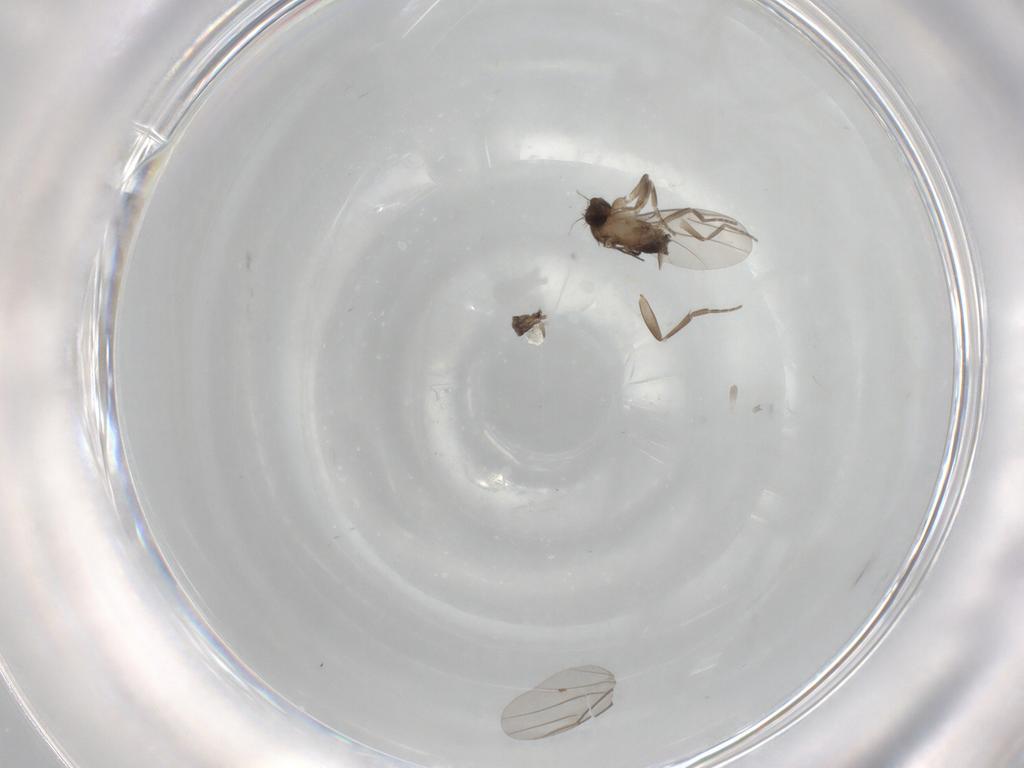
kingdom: Animalia
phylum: Arthropoda
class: Insecta
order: Diptera
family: Phoridae
